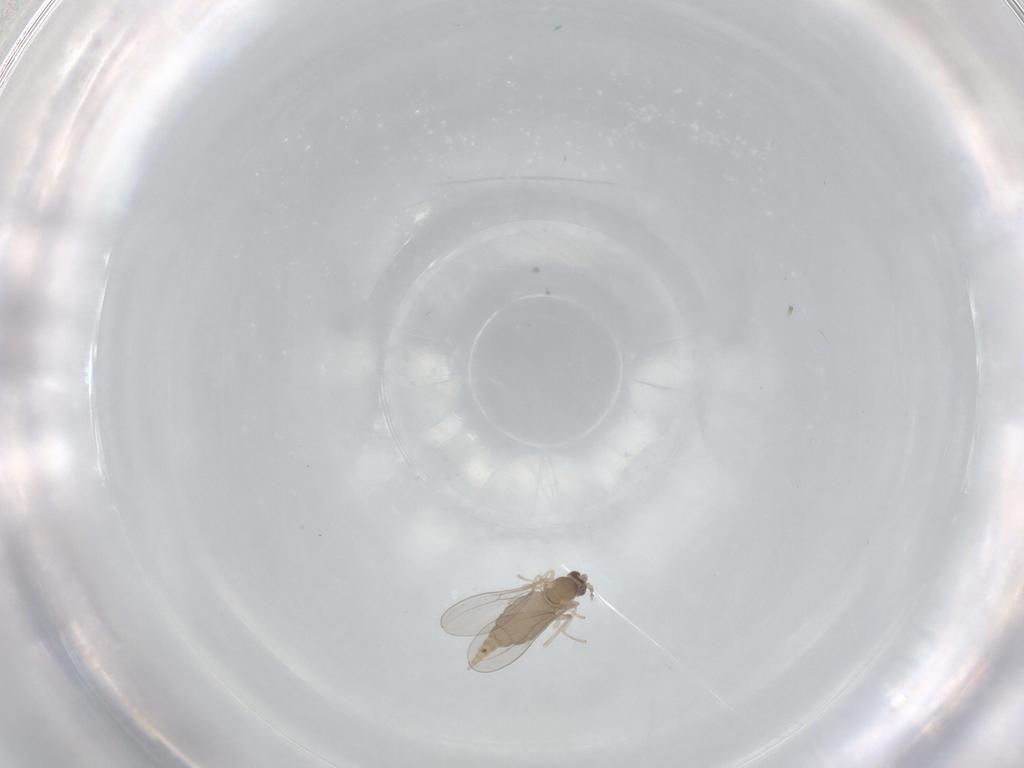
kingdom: Animalia
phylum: Arthropoda
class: Insecta
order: Diptera
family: Cecidomyiidae
